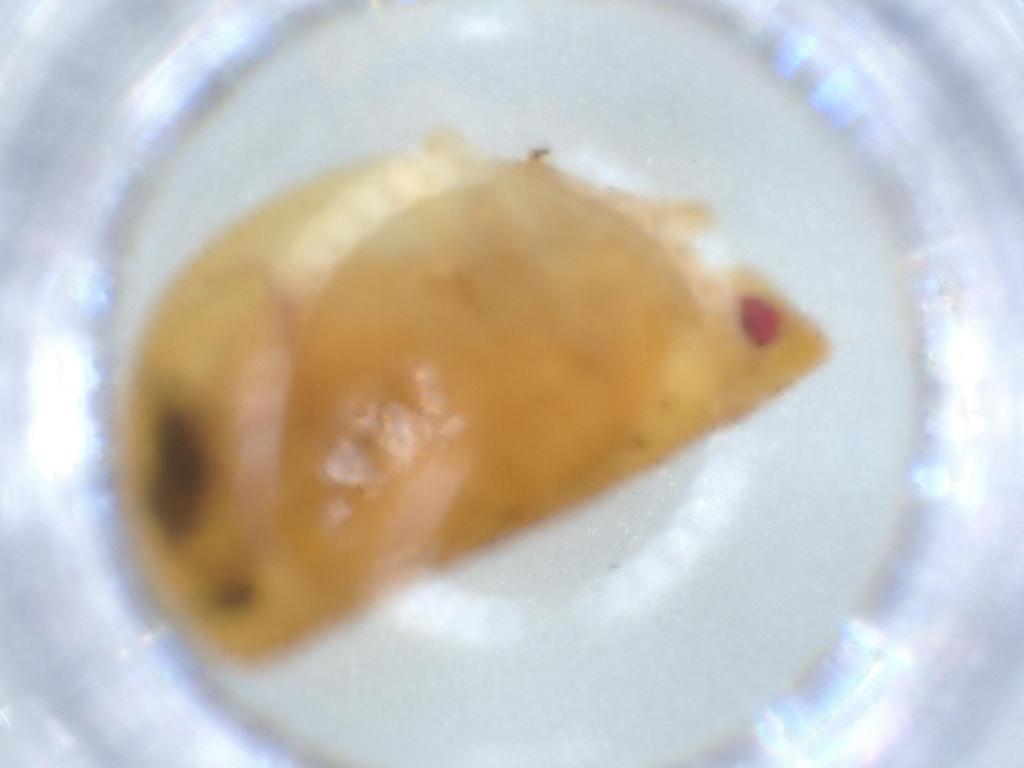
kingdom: Animalia
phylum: Arthropoda
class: Insecta
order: Hemiptera
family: Acanaloniidae
